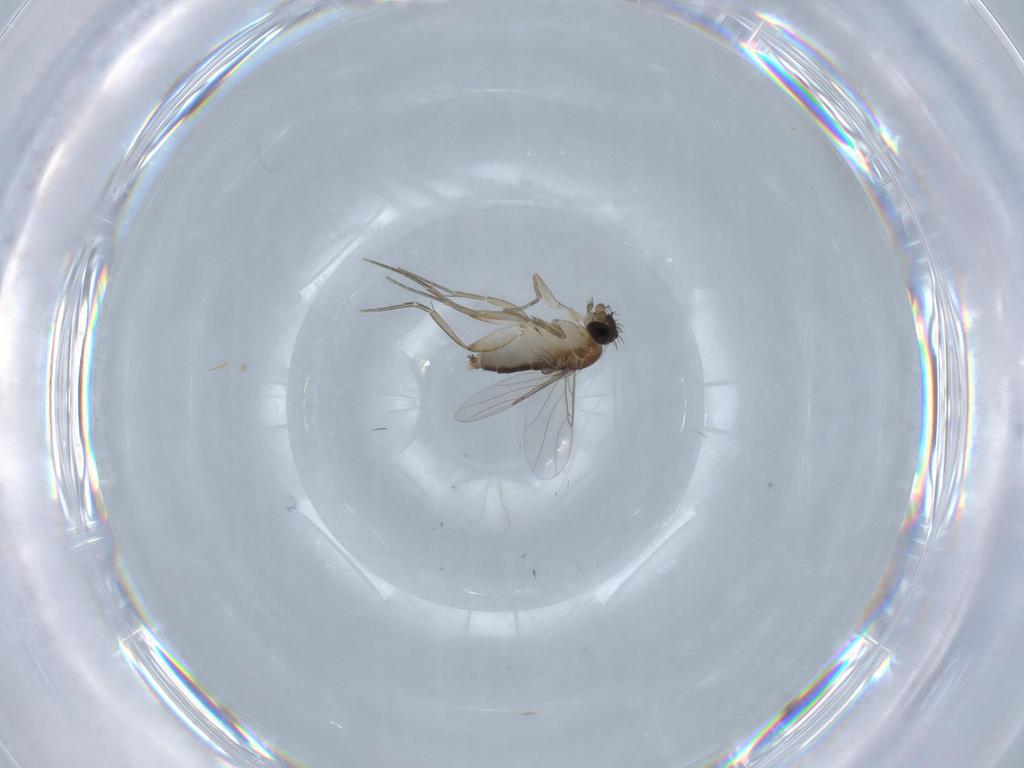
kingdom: Animalia
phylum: Arthropoda
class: Insecta
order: Diptera
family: Phoridae
